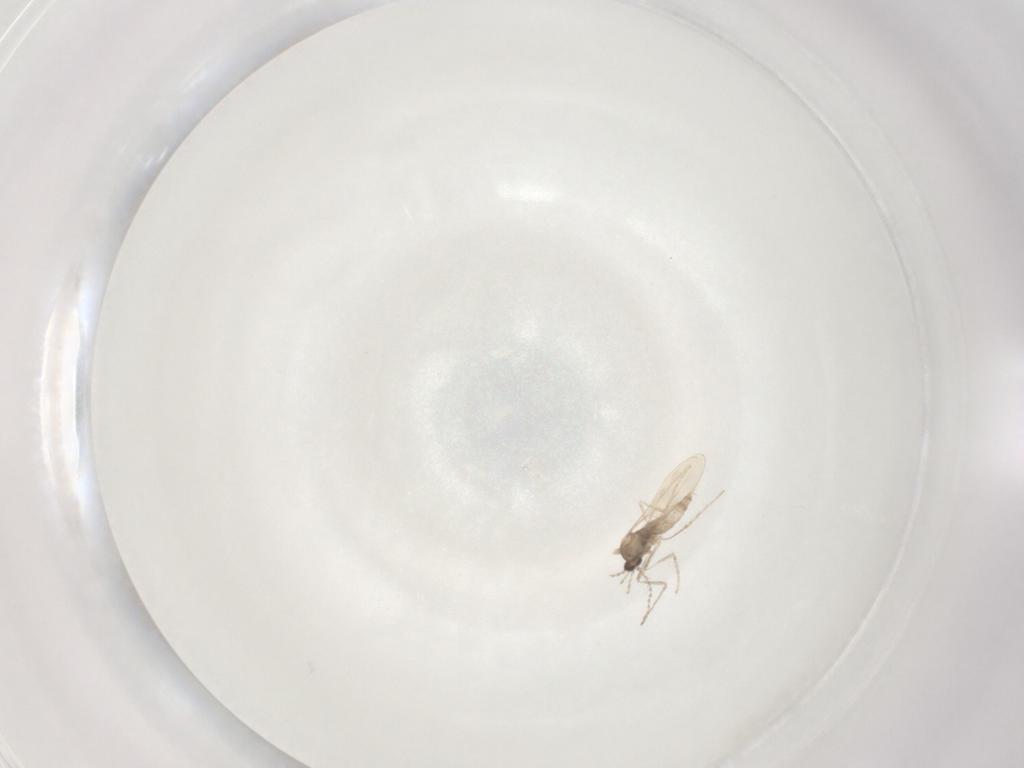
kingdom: Animalia
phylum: Arthropoda
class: Insecta
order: Diptera
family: Cecidomyiidae
